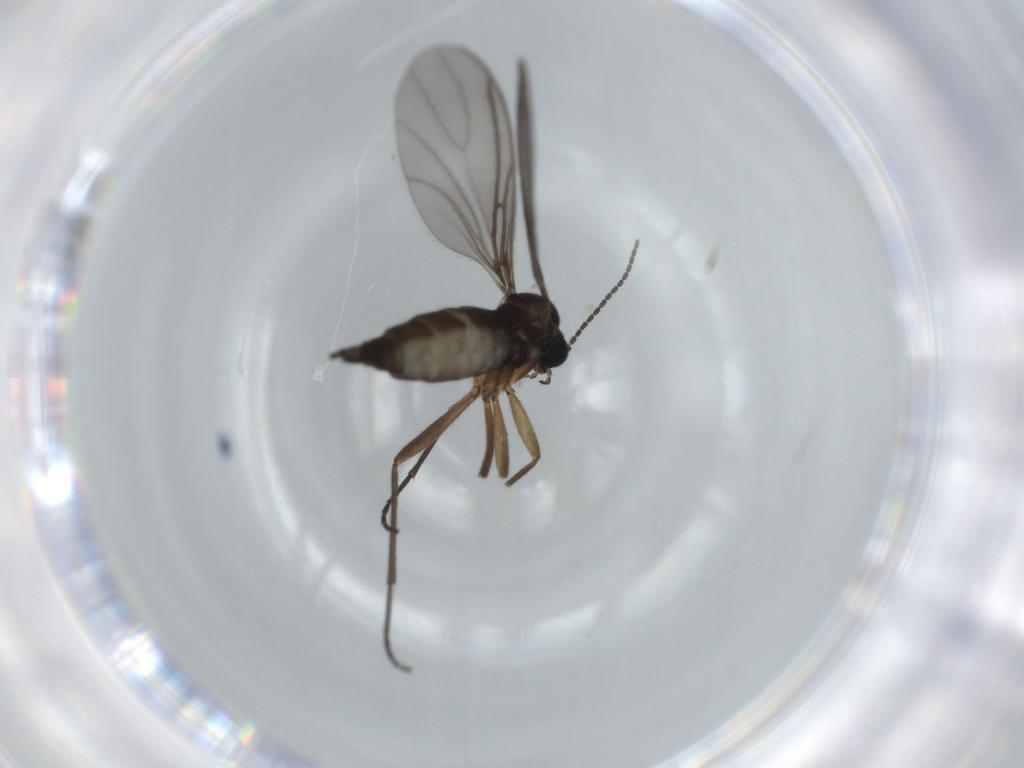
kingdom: Animalia
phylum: Arthropoda
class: Insecta
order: Diptera
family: Sciaridae
